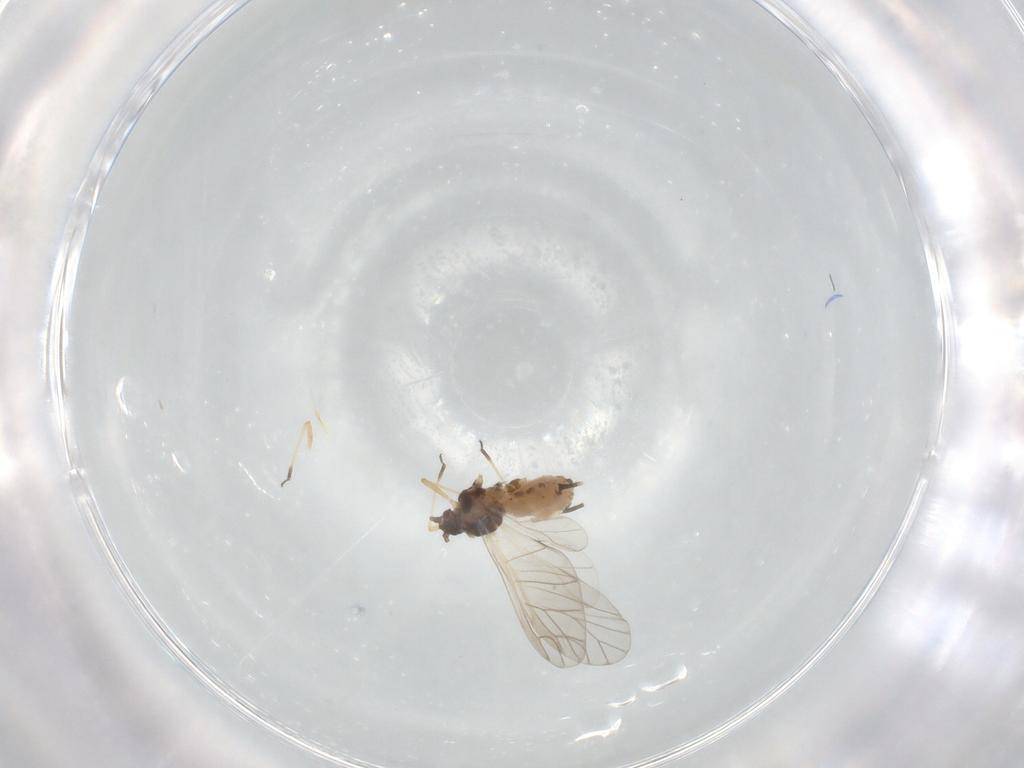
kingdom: Animalia
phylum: Arthropoda
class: Insecta
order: Hemiptera
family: Aphididae
